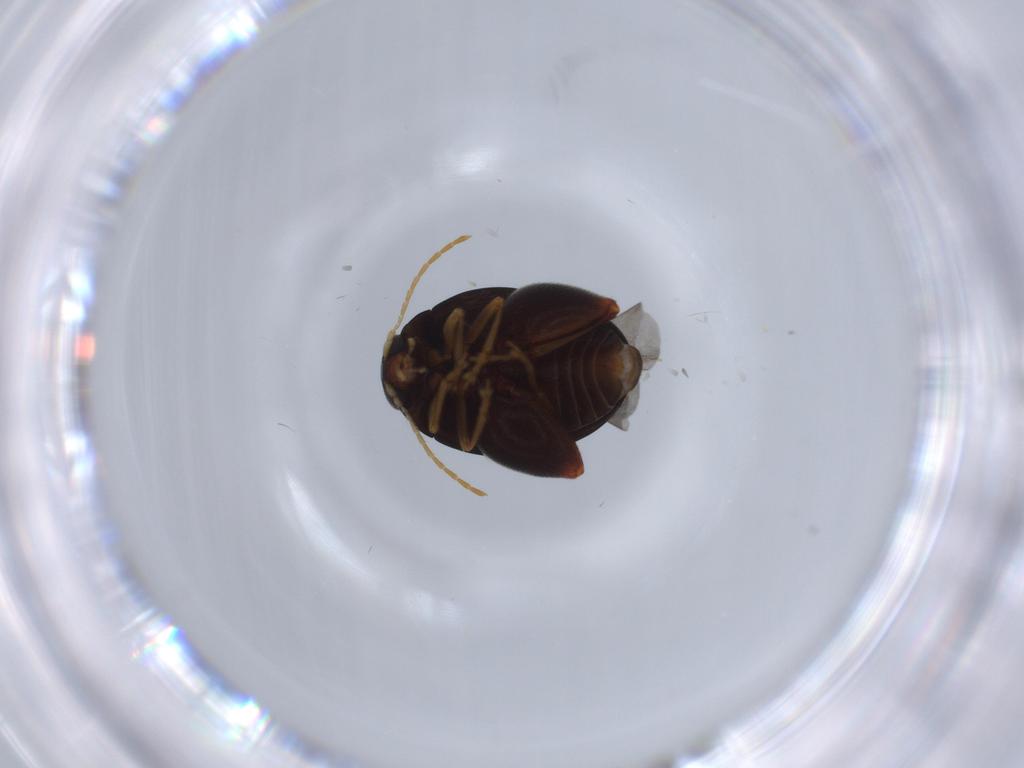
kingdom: Animalia
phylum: Arthropoda
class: Insecta
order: Coleoptera
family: Chrysomelidae
